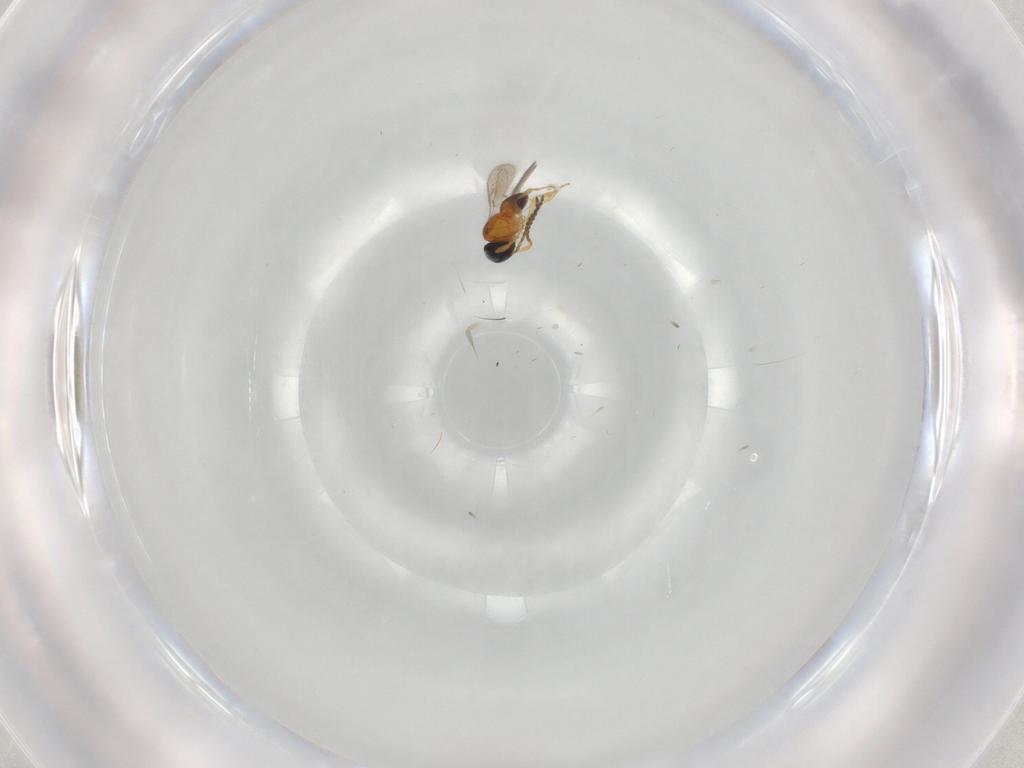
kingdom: Animalia
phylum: Arthropoda
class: Insecta
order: Hymenoptera
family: Scelionidae
